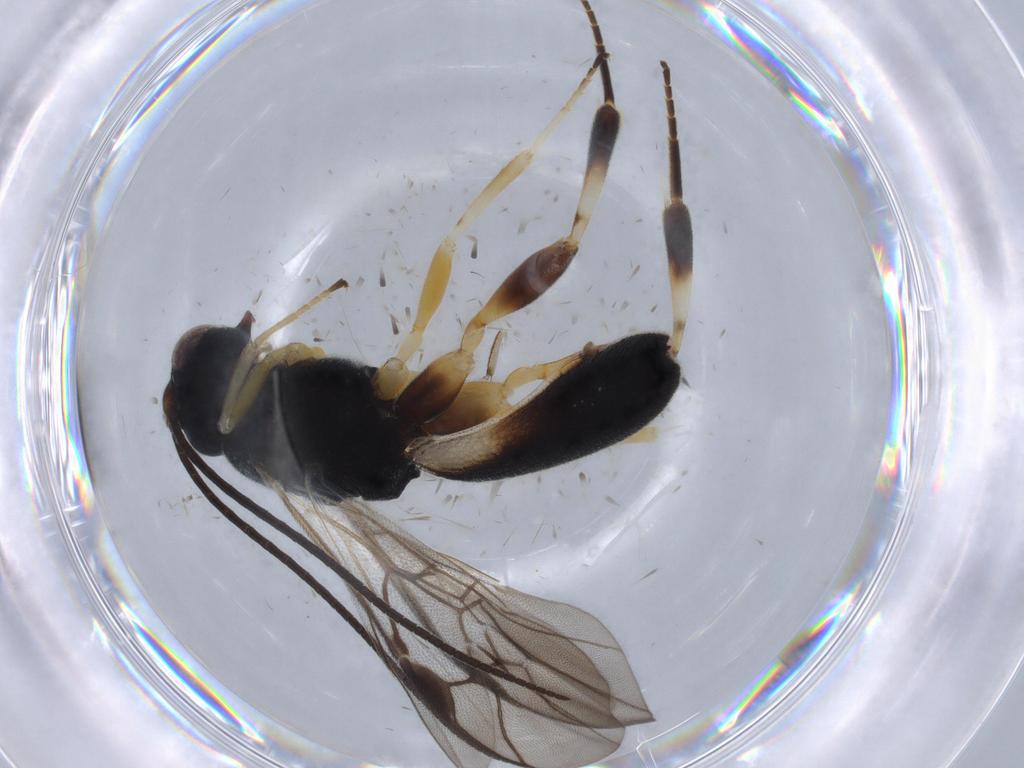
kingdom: Animalia
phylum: Arthropoda
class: Insecta
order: Hymenoptera
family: Braconidae
